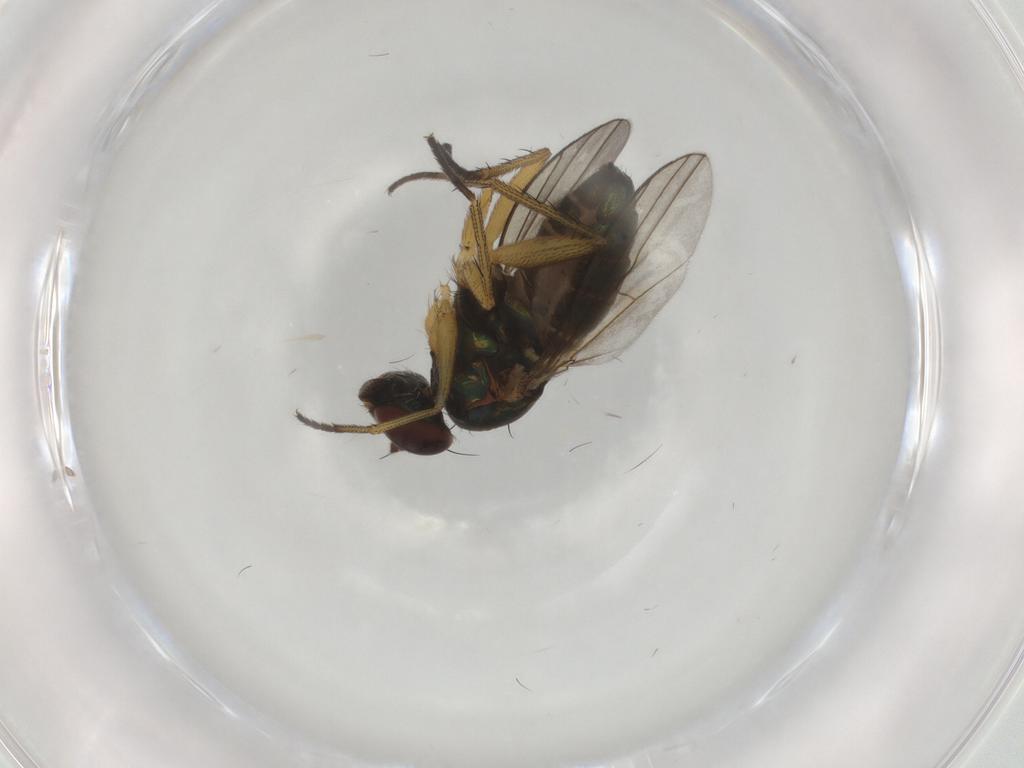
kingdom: Animalia
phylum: Arthropoda
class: Insecta
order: Diptera
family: Dolichopodidae
